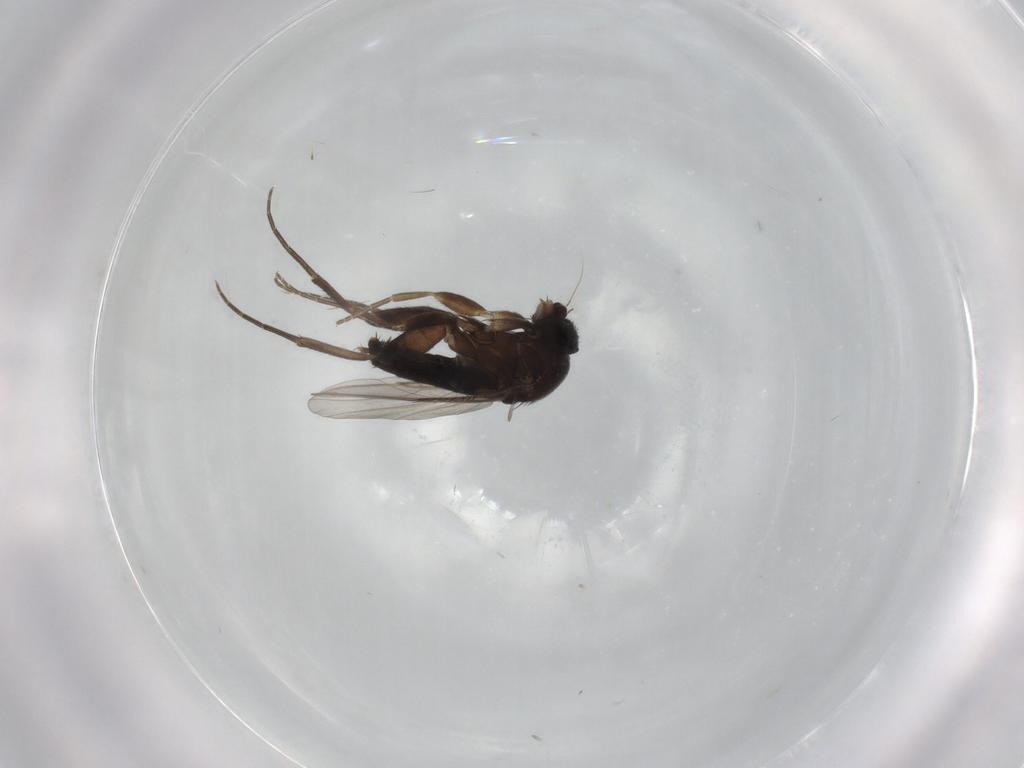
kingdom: Animalia
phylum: Arthropoda
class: Insecta
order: Diptera
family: Phoridae
